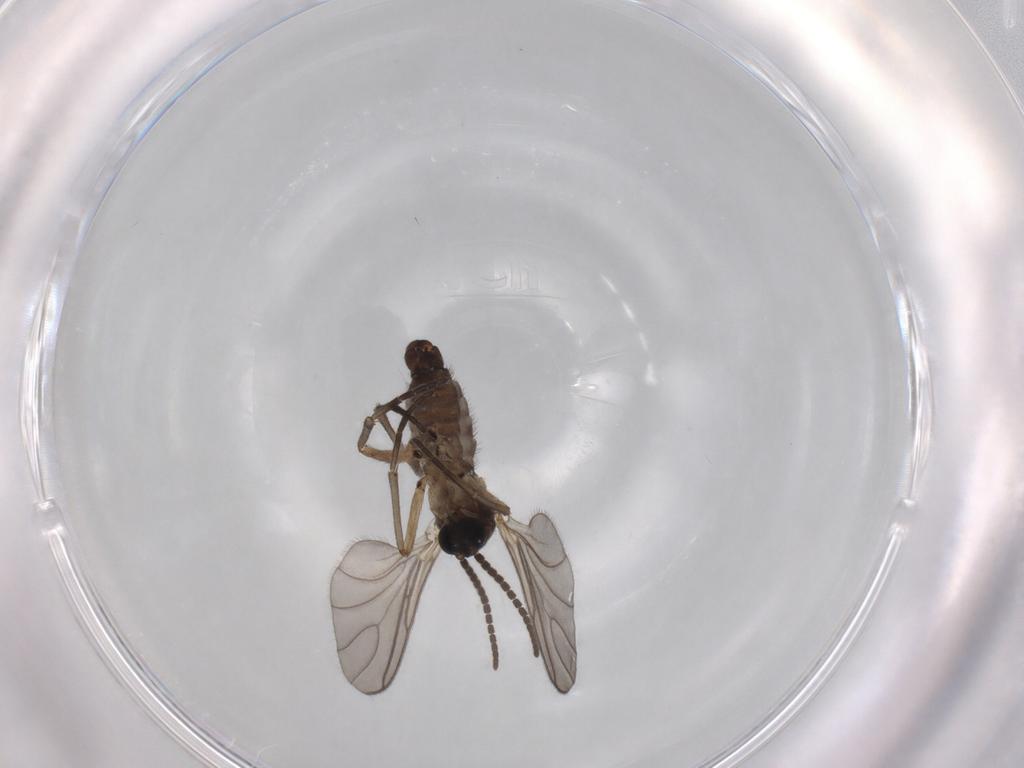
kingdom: Animalia
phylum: Arthropoda
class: Insecta
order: Diptera
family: Sciaridae
